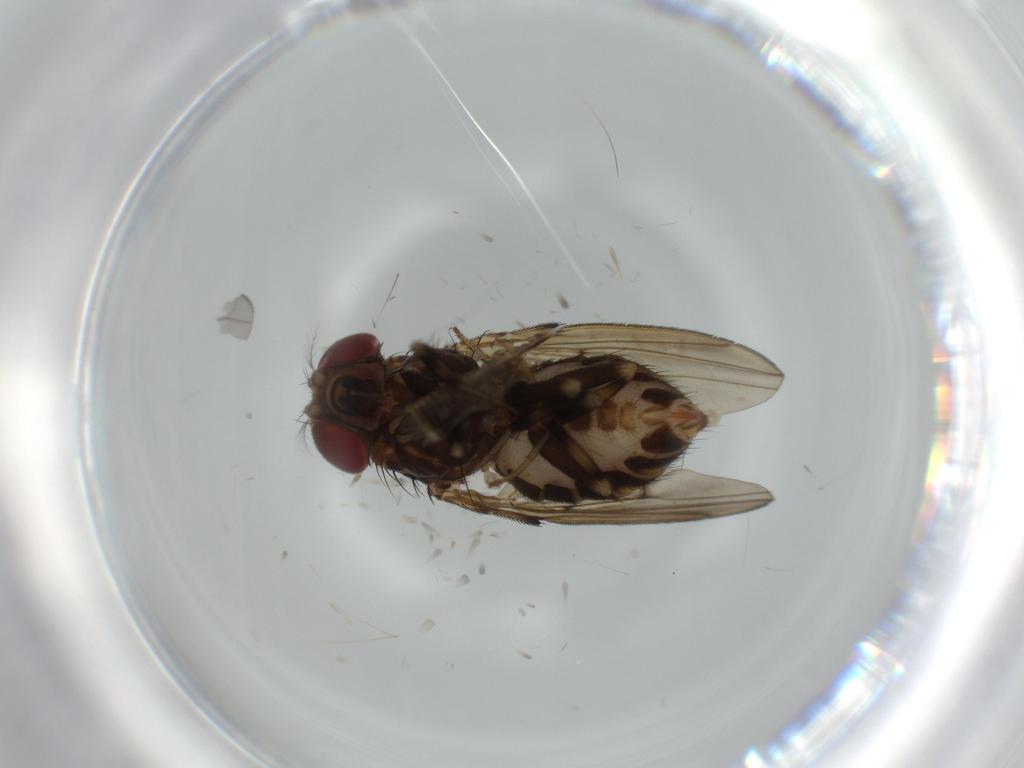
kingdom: Animalia
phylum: Arthropoda
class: Insecta
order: Diptera
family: Drosophilidae
